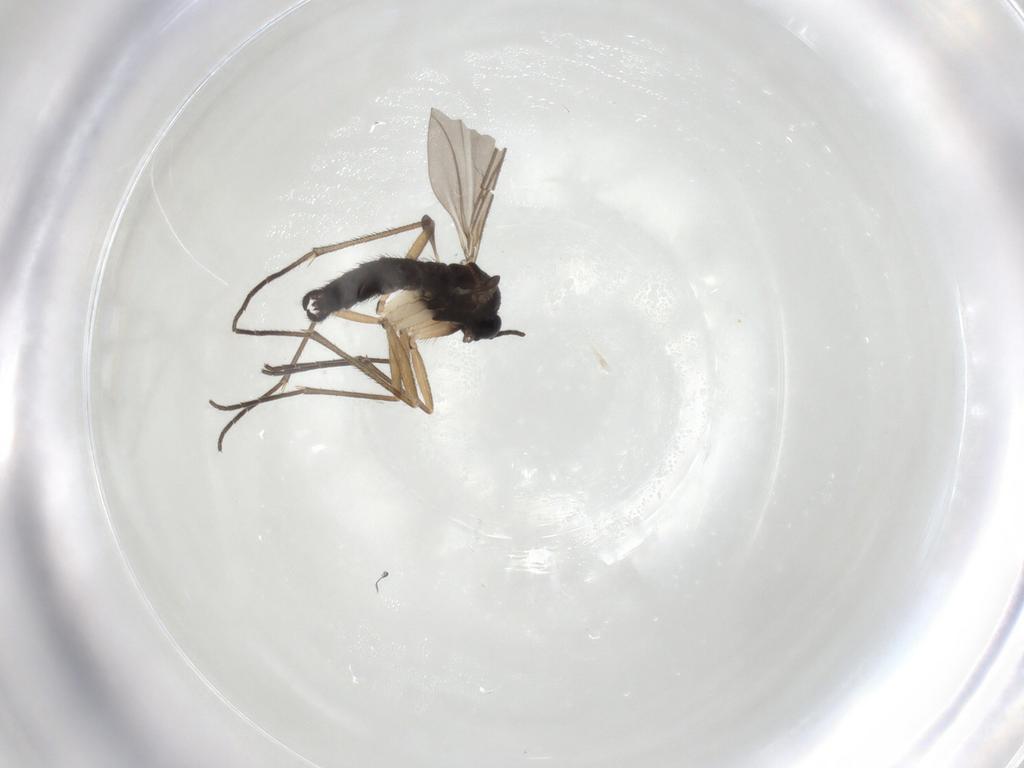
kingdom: Animalia
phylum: Arthropoda
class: Insecta
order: Diptera
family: Sciaridae
